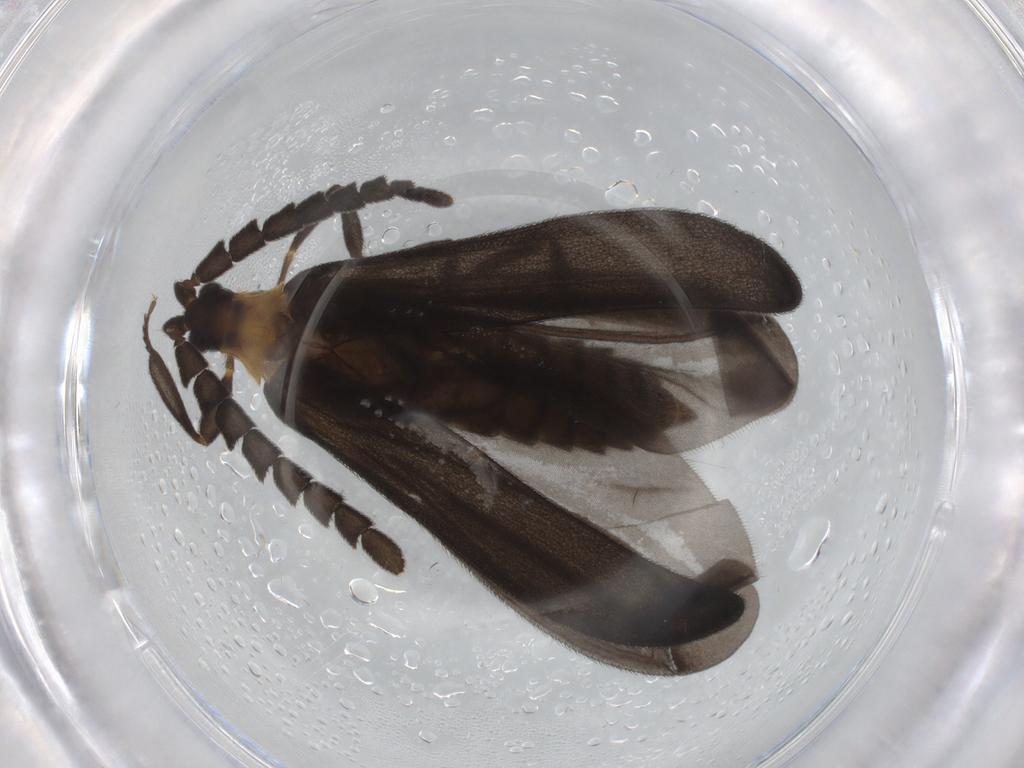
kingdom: Animalia
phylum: Arthropoda
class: Insecta
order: Coleoptera
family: Lycidae
